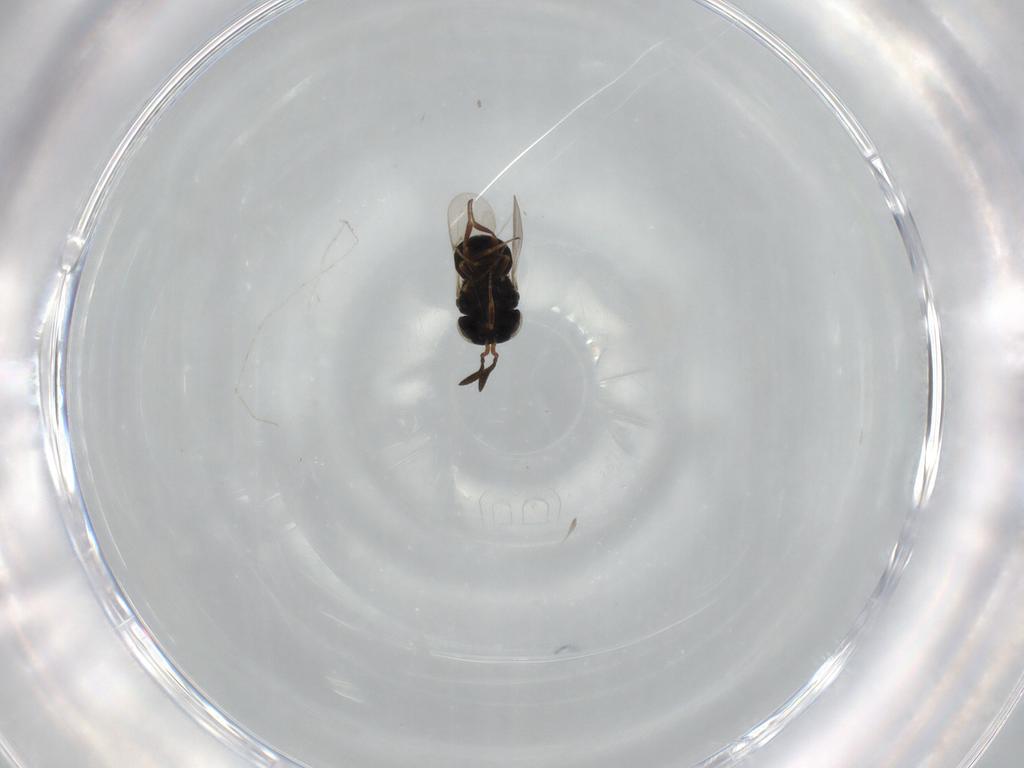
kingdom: Animalia
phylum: Arthropoda
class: Insecta
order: Hymenoptera
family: Scelionidae
